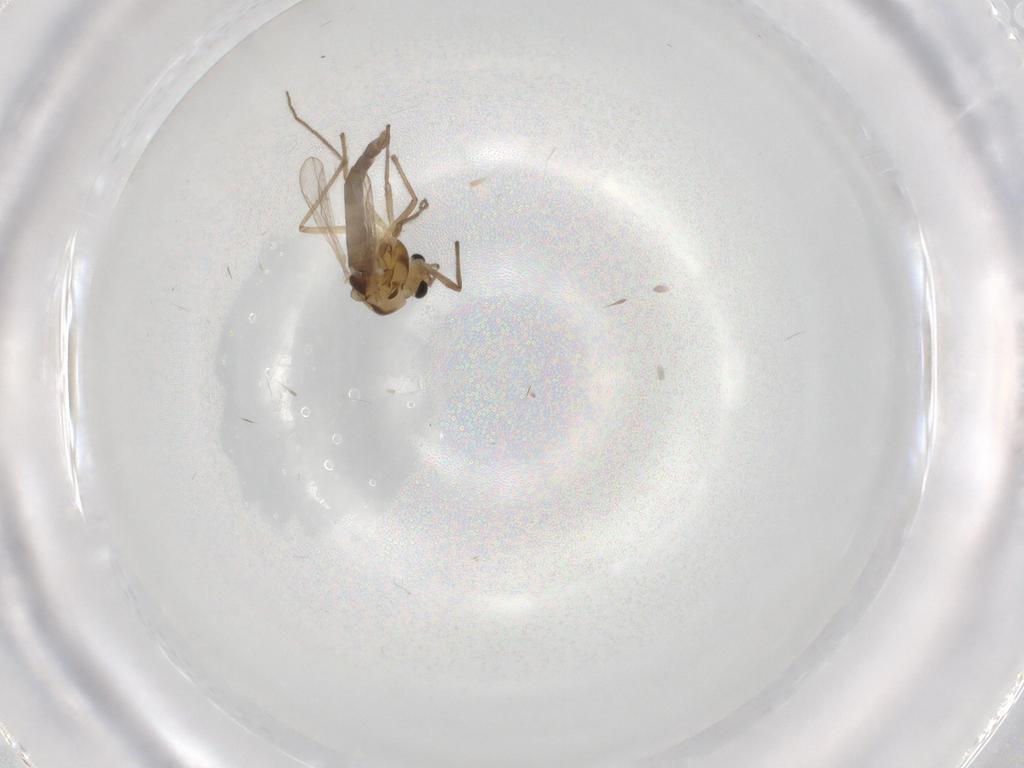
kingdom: Animalia
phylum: Arthropoda
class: Insecta
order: Diptera
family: Chironomidae
